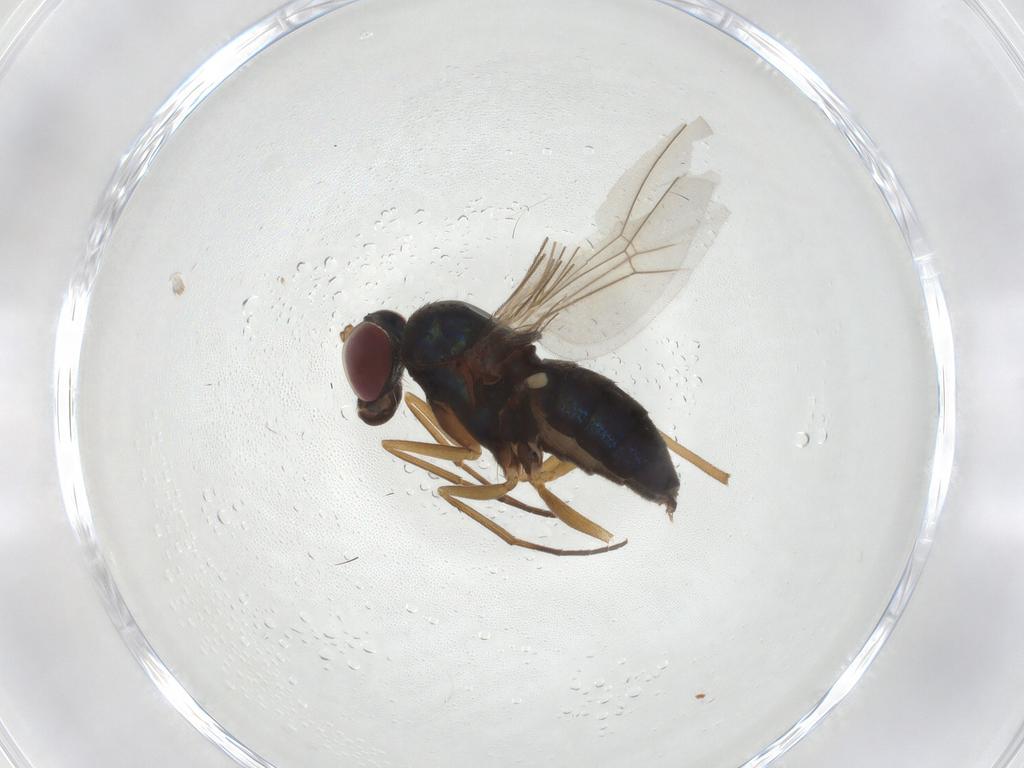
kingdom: Animalia
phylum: Arthropoda
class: Insecta
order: Diptera
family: Dolichopodidae
